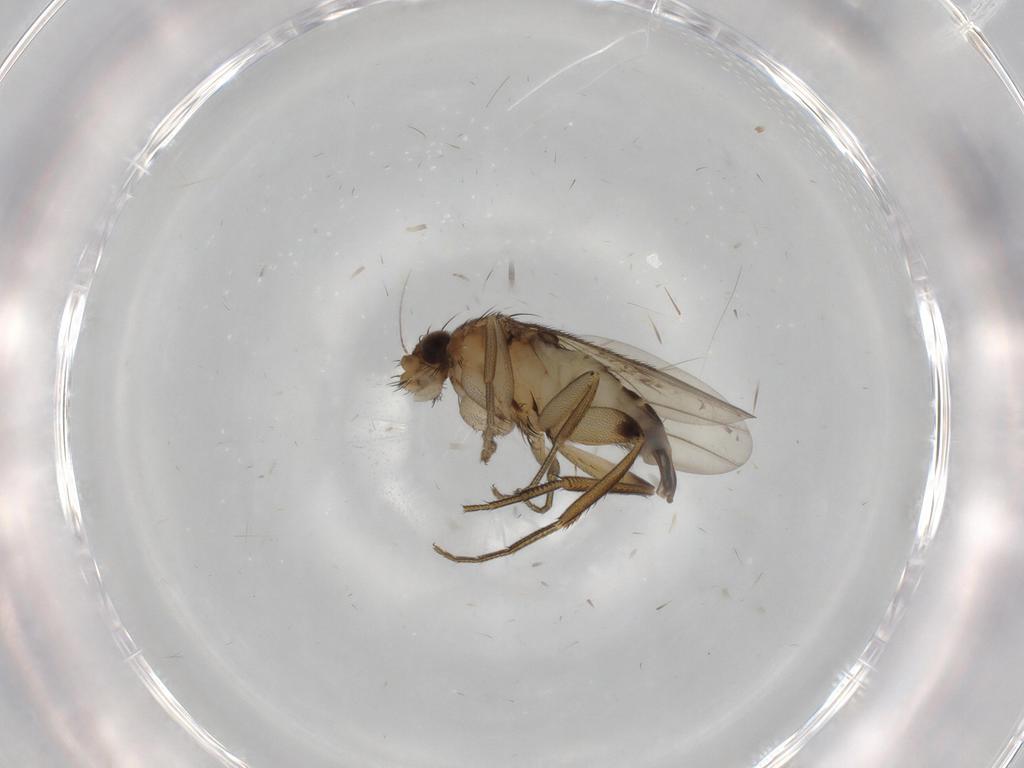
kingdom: Animalia
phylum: Arthropoda
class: Insecta
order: Diptera
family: Phoridae
